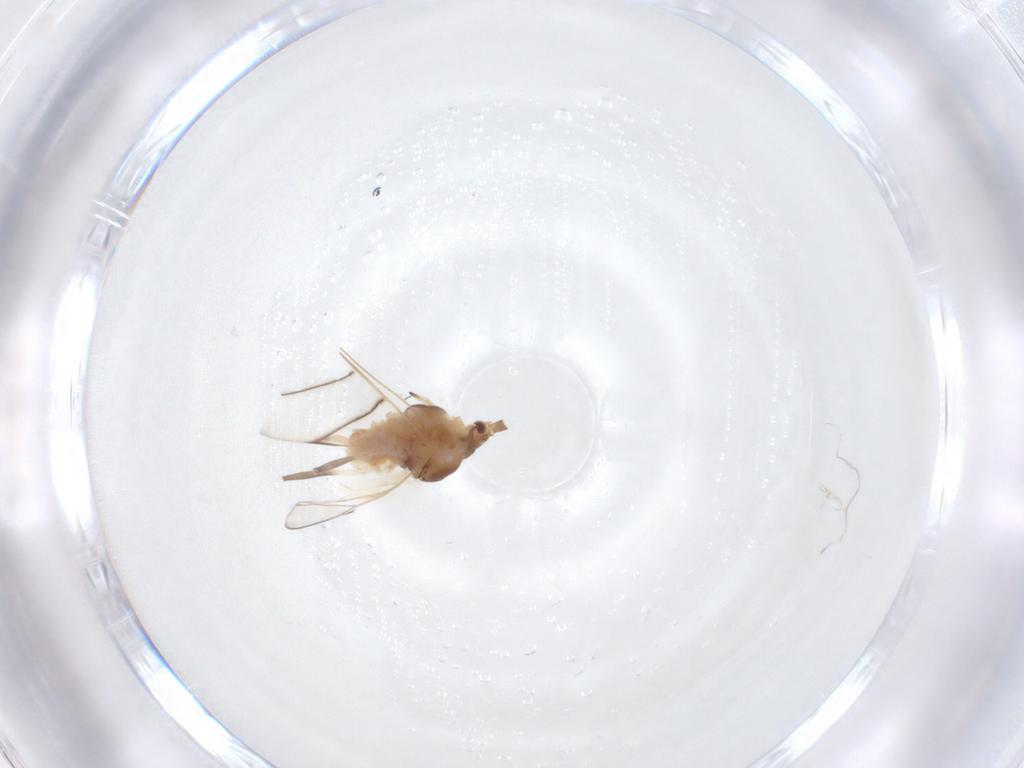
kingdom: Animalia
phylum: Arthropoda
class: Insecta
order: Hemiptera
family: Aphididae
